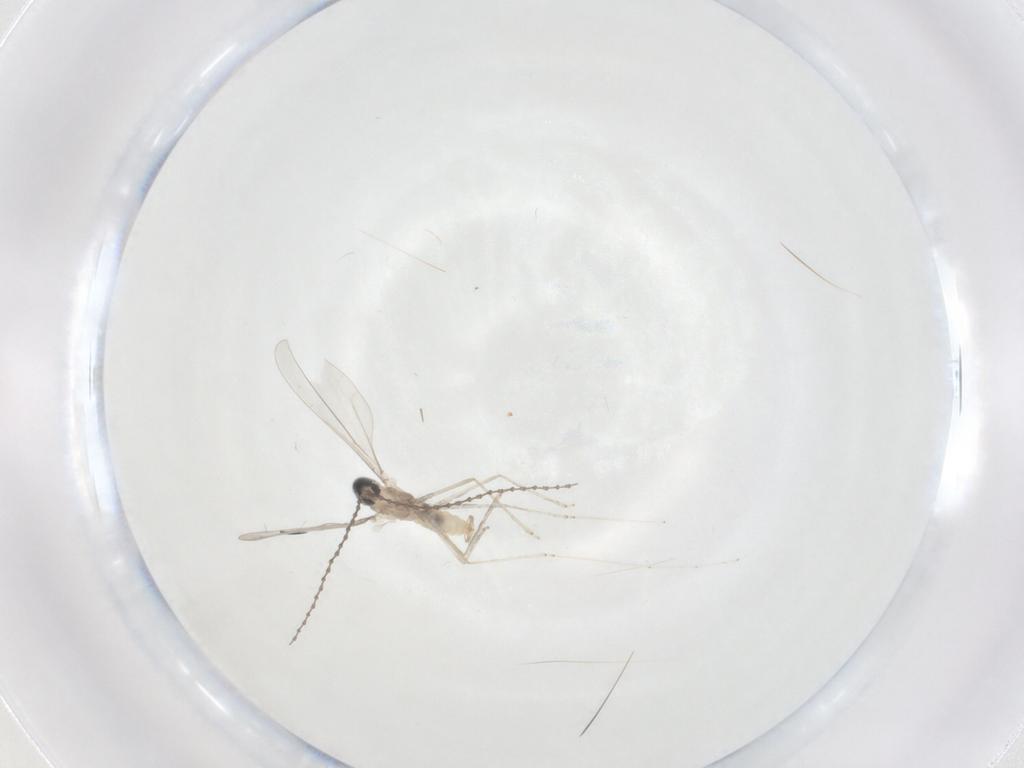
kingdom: Animalia
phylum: Arthropoda
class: Insecta
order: Diptera
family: Cecidomyiidae
